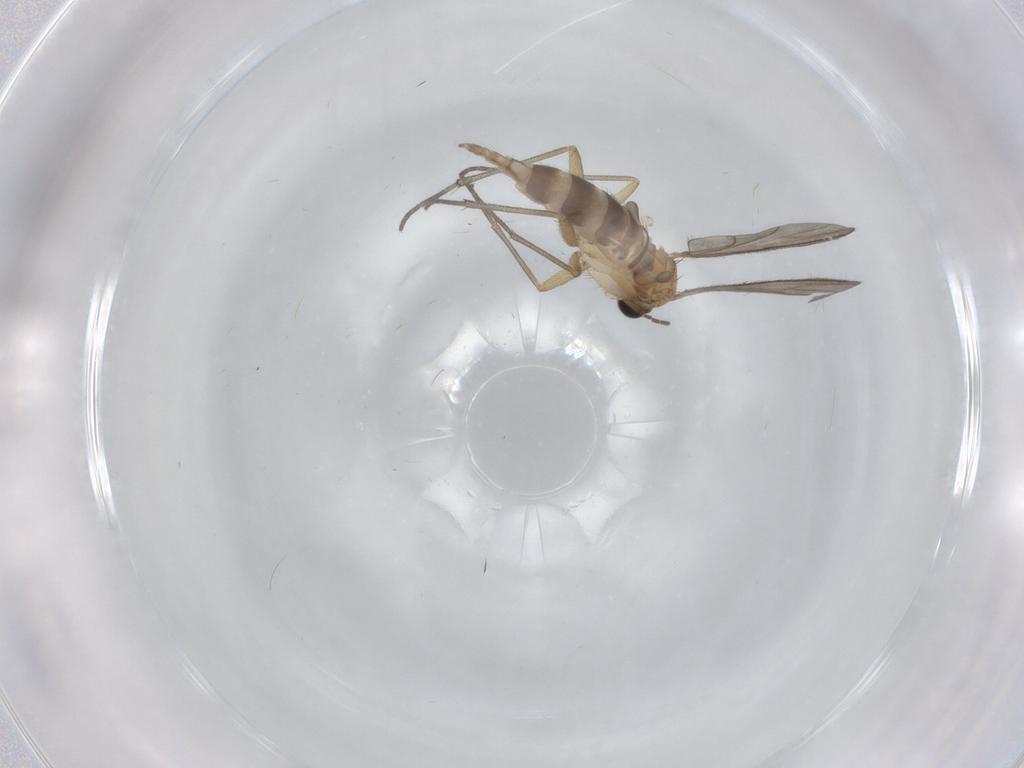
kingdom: Animalia
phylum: Arthropoda
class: Insecta
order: Diptera
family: Sciaridae
